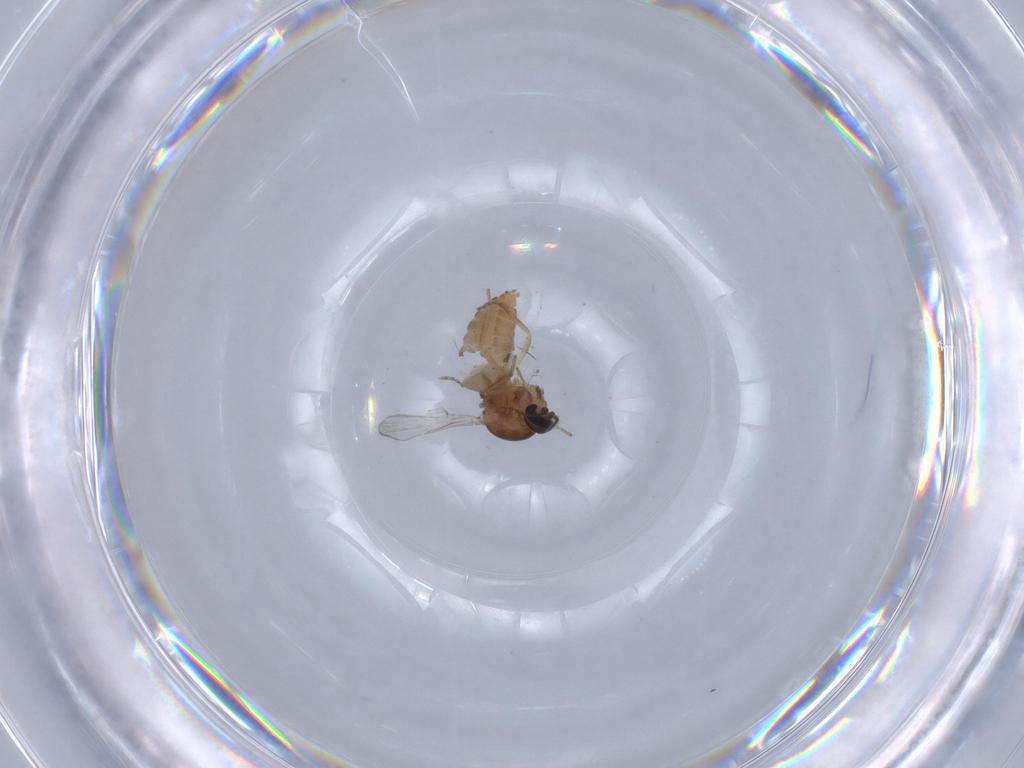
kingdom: Animalia
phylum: Arthropoda
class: Insecta
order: Diptera
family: Ceratopogonidae
